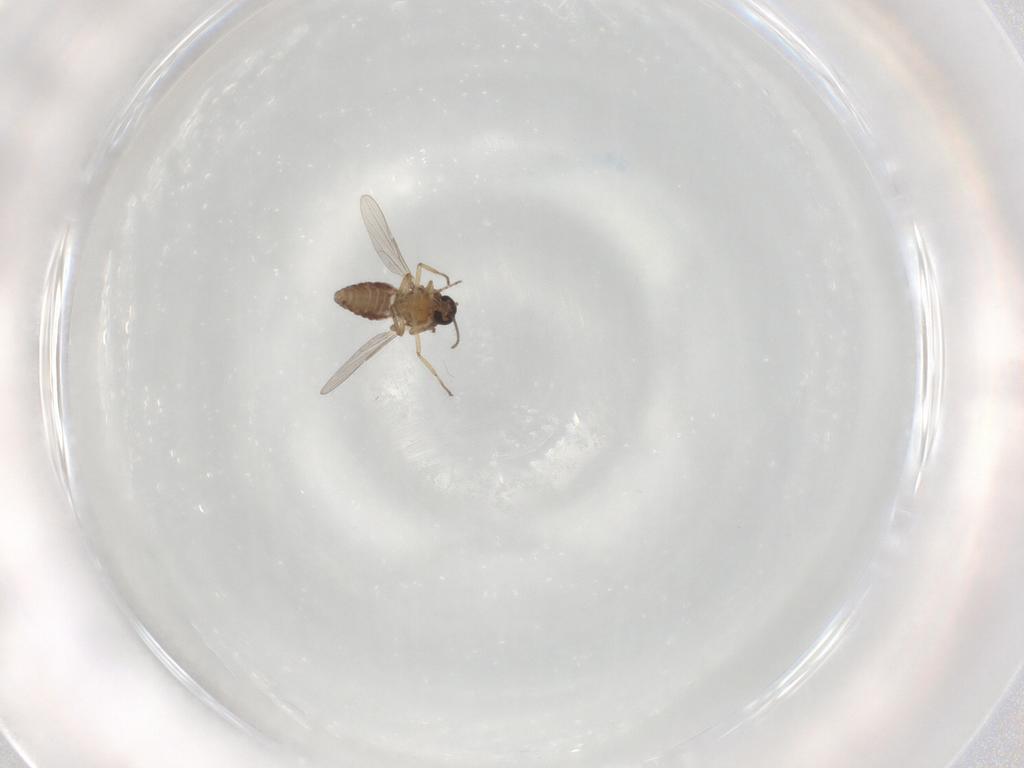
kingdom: Animalia
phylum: Arthropoda
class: Insecta
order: Diptera
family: Ceratopogonidae
